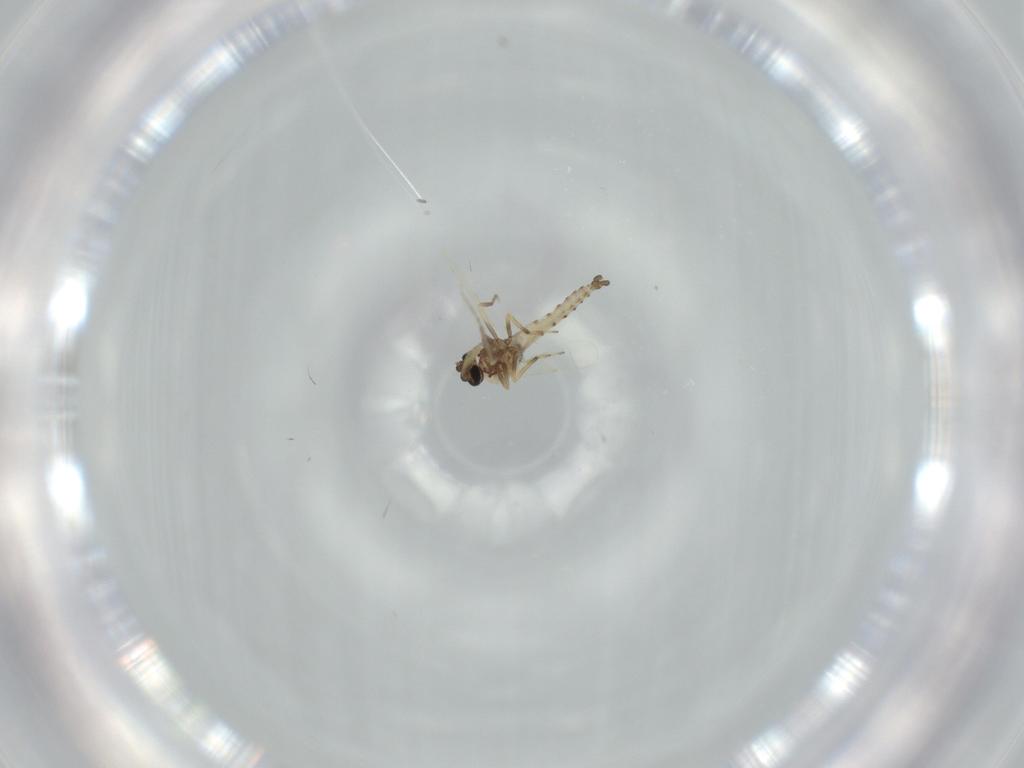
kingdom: Animalia
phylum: Arthropoda
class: Insecta
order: Diptera
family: Ceratopogonidae
